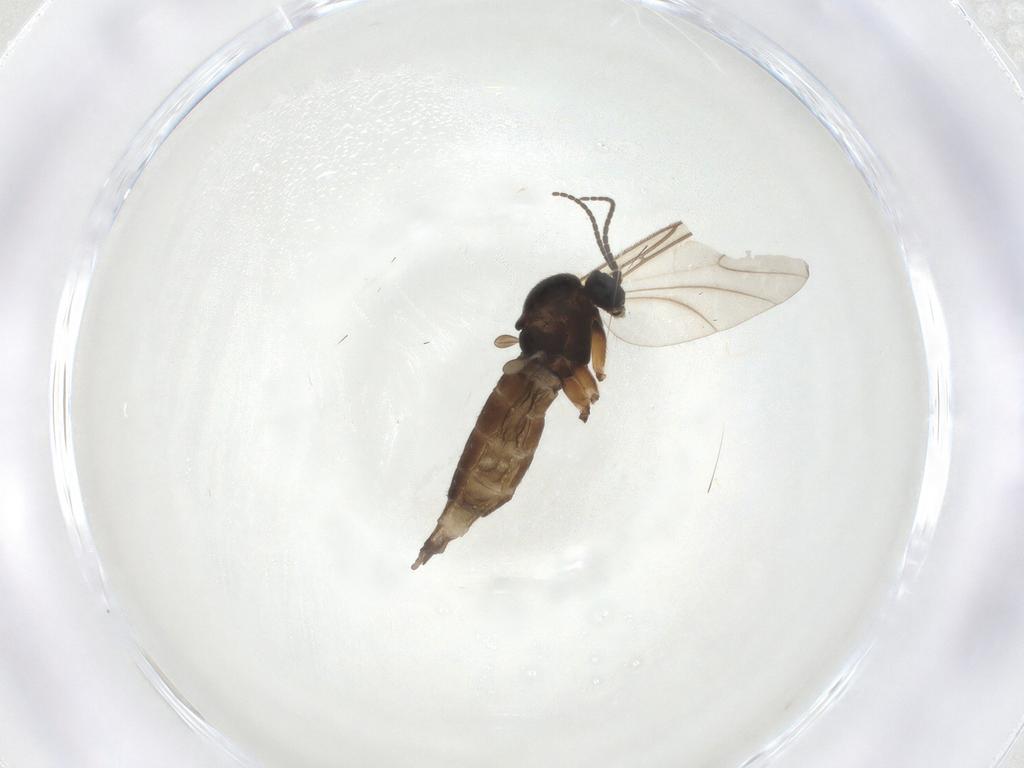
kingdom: Animalia
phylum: Arthropoda
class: Insecta
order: Diptera
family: Sciaridae
